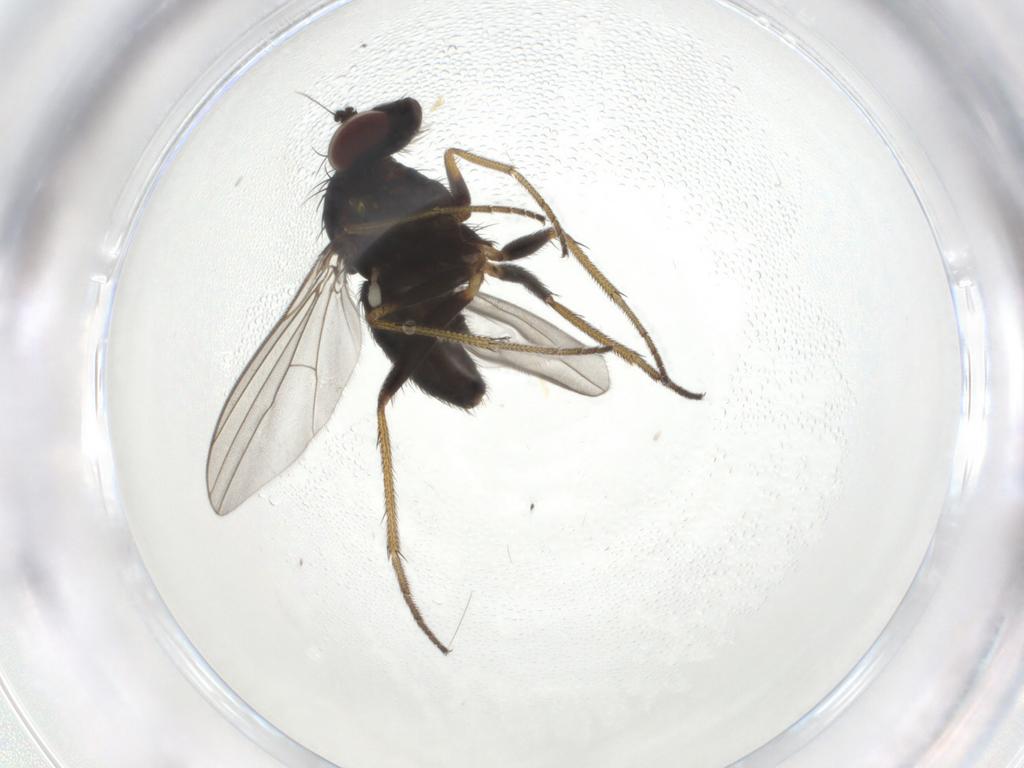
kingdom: Animalia
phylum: Arthropoda
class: Insecta
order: Diptera
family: Dolichopodidae
